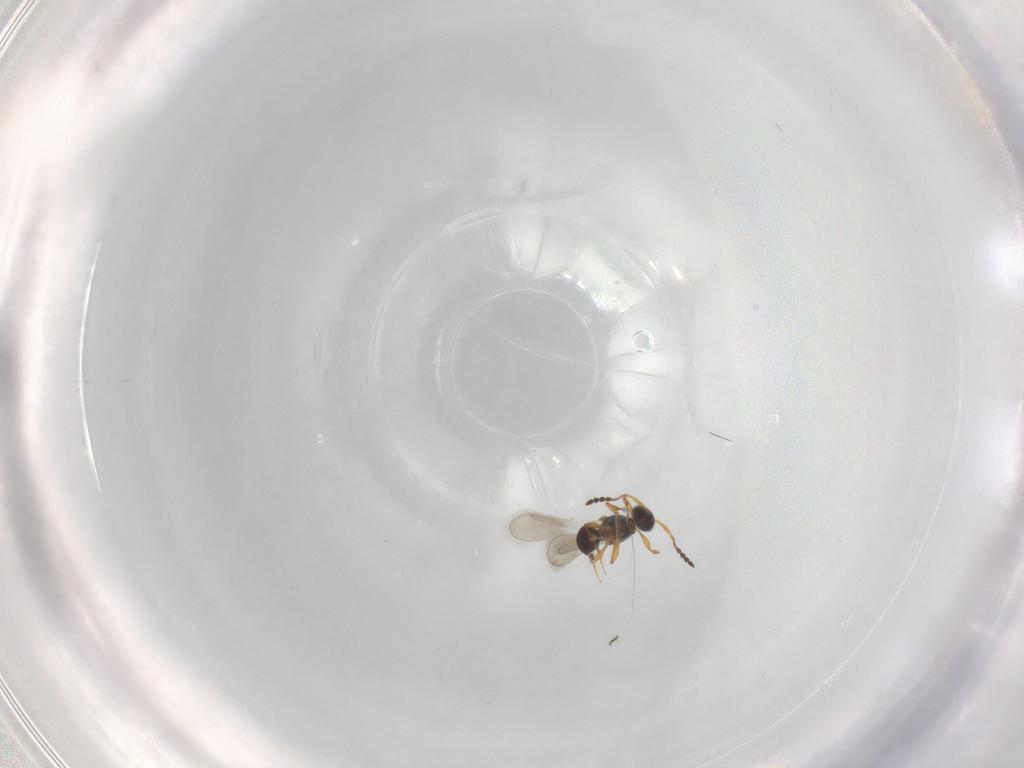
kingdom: Animalia
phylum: Arthropoda
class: Insecta
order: Hymenoptera
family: Platygastridae
